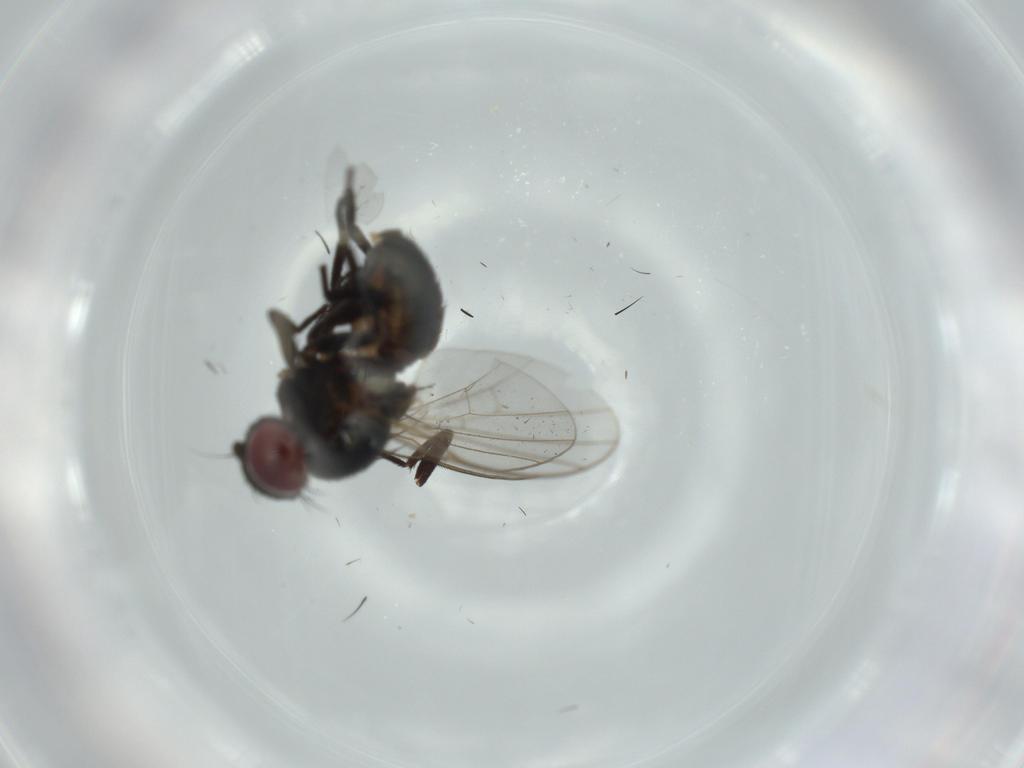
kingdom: Animalia
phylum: Arthropoda
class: Insecta
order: Diptera
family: Agromyzidae
